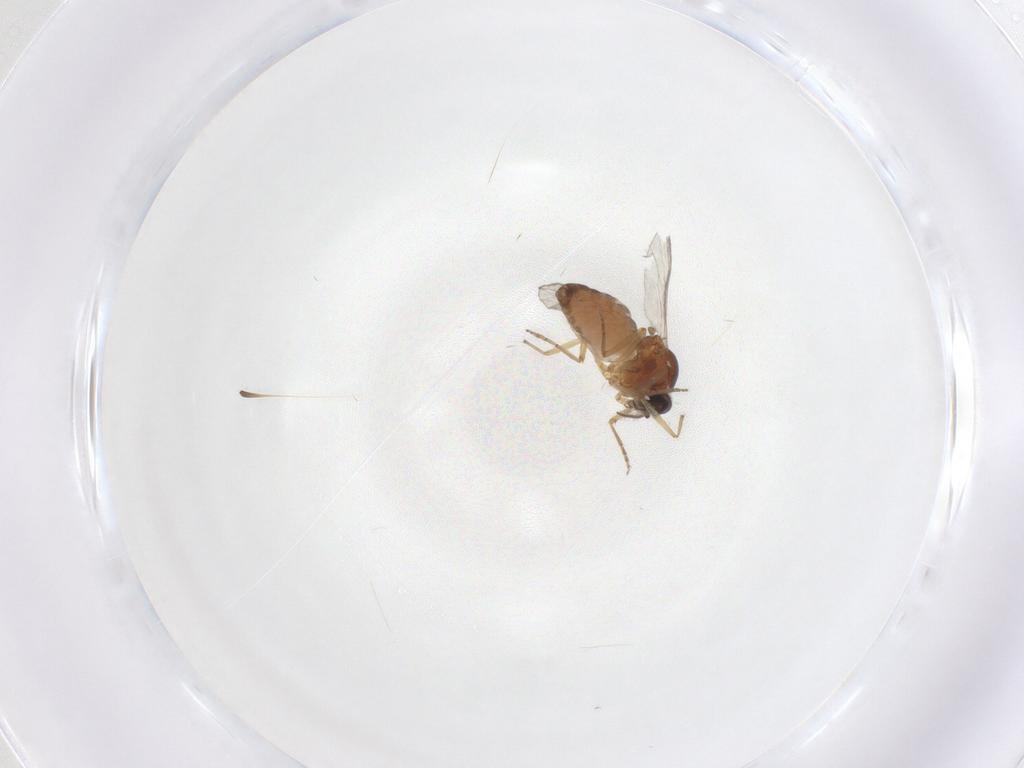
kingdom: Animalia
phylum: Arthropoda
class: Insecta
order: Diptera
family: Ceratopogonidae
